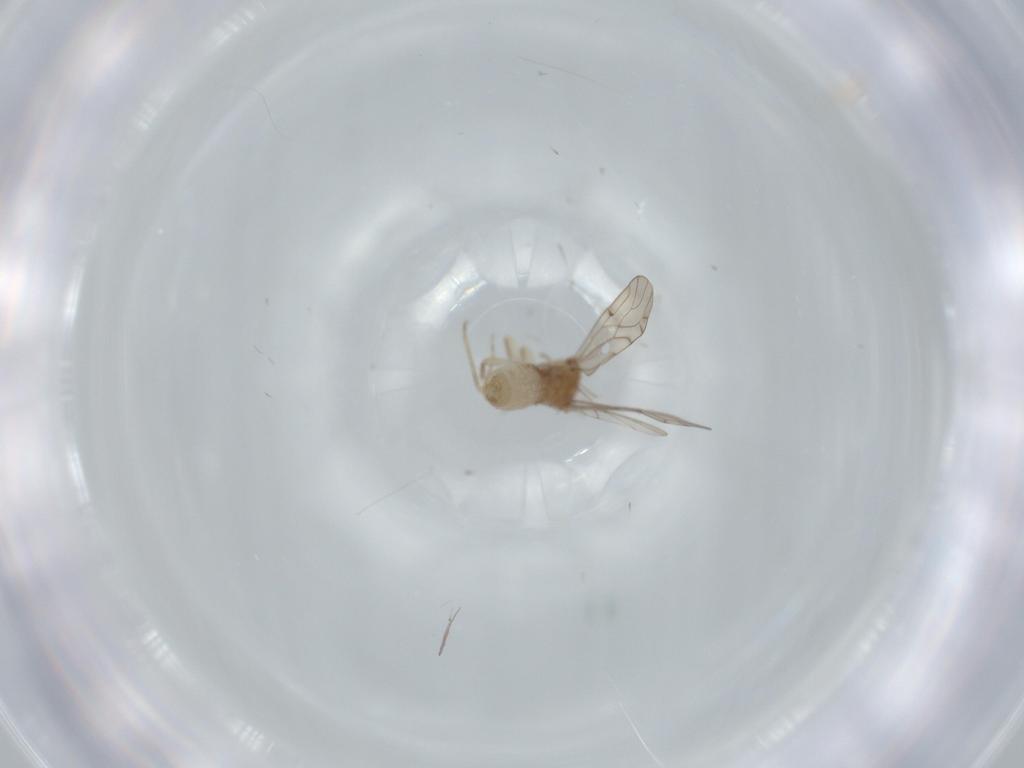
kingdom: Animalia
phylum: Arthropoda
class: Insecta
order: Psocodea
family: Ectopsocidae
